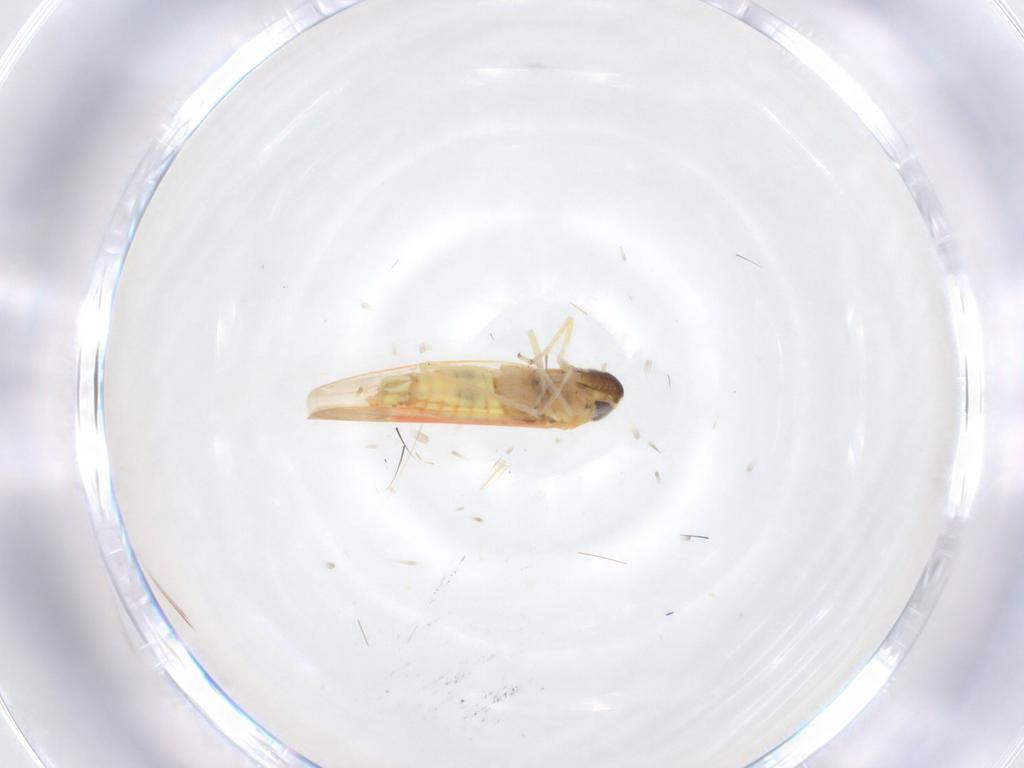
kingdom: Animalia
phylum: Arthropoda
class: Insecta
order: Hemiptera
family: Cicadellidae
